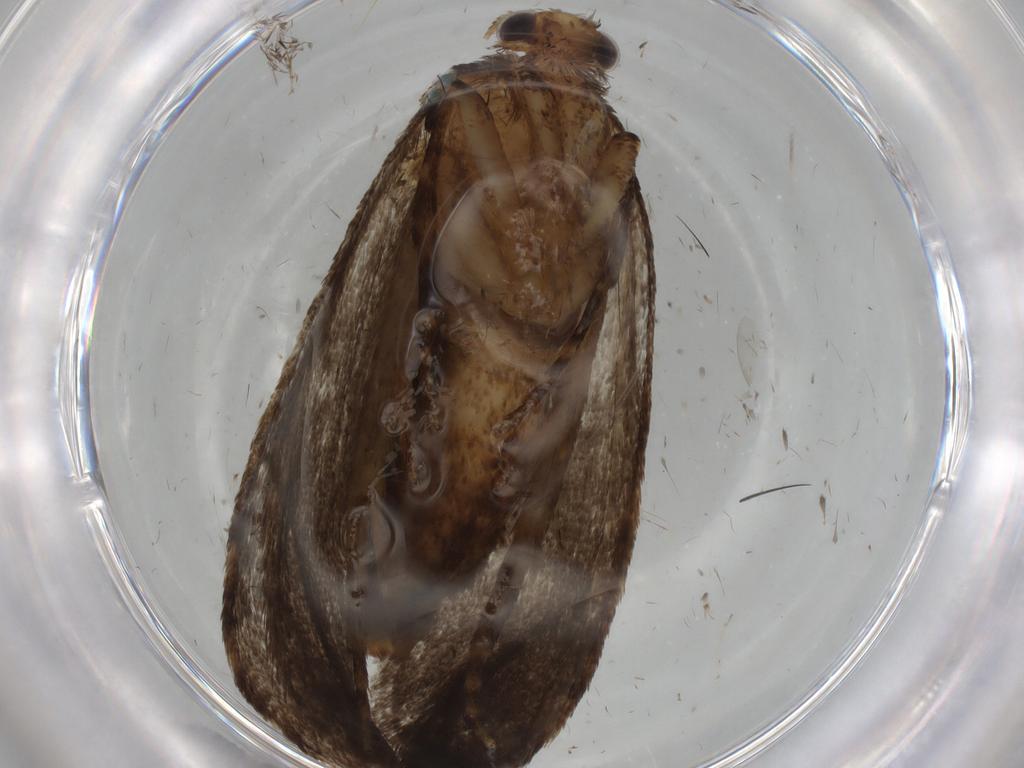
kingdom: Animalia
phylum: Arthropoda
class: Insecta
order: Lepidoptera
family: Tineidae
